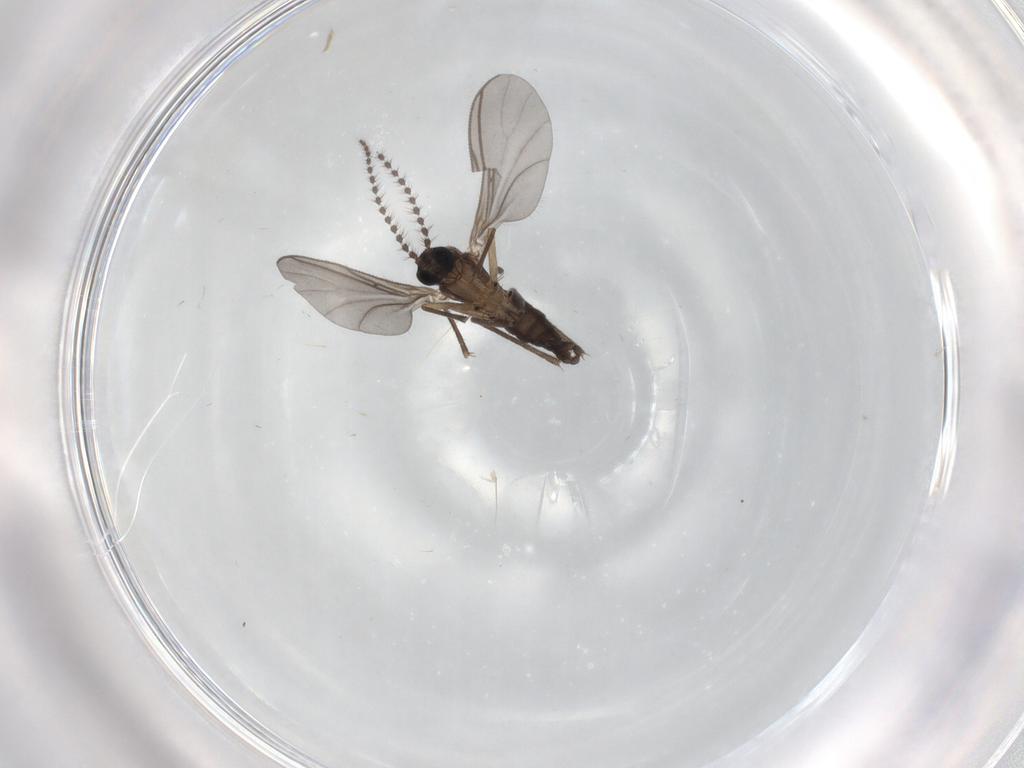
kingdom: Animalia
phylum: Arthropoda
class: Insecta
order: Diptera
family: Sciaridae
